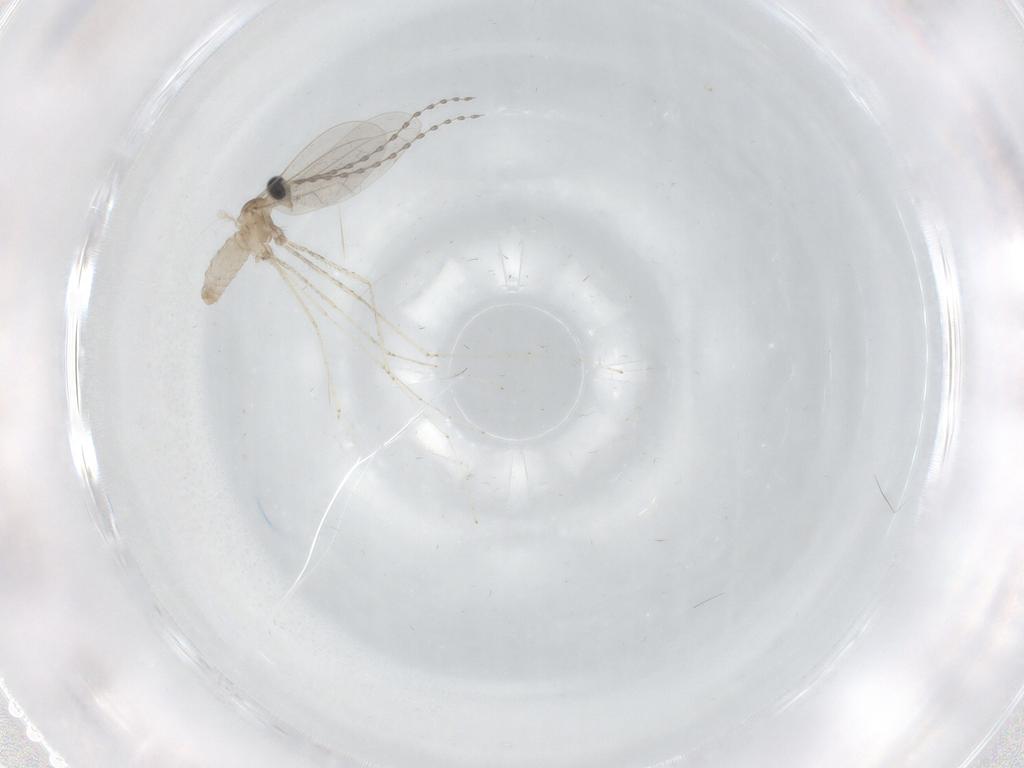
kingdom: Animalia
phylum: Arthropoda
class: Insecta
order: Diptera
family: Cecidomyiidae
